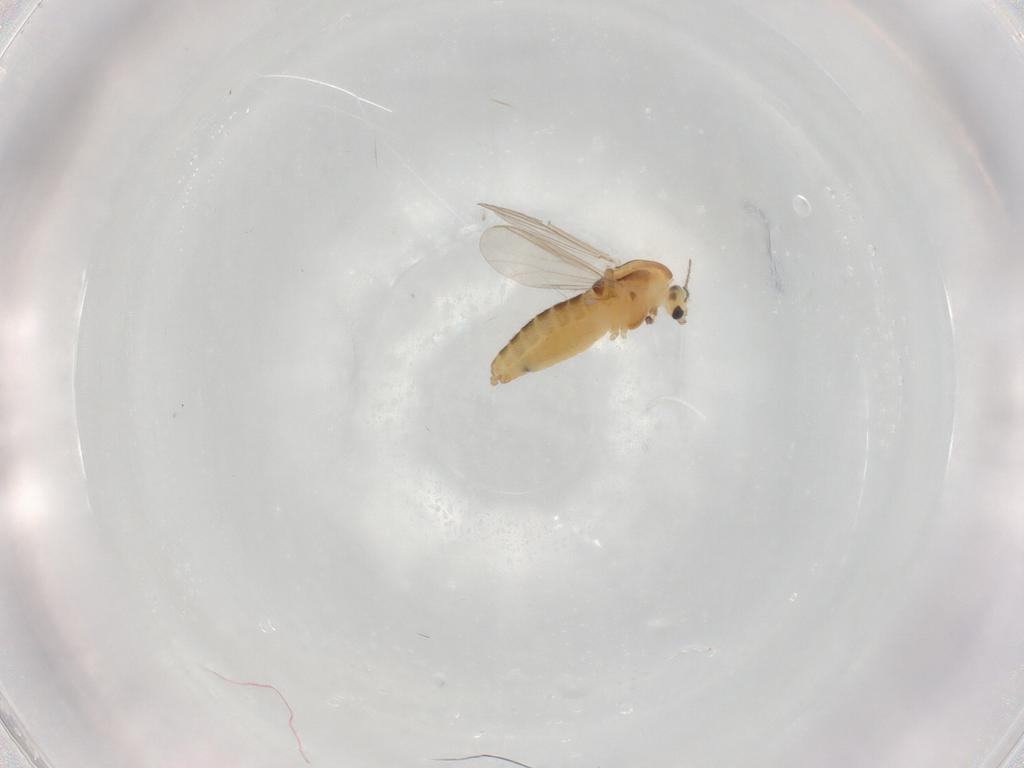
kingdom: Animalia
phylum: Arthropoda
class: Insecta
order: Diptera
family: Chironomidae
